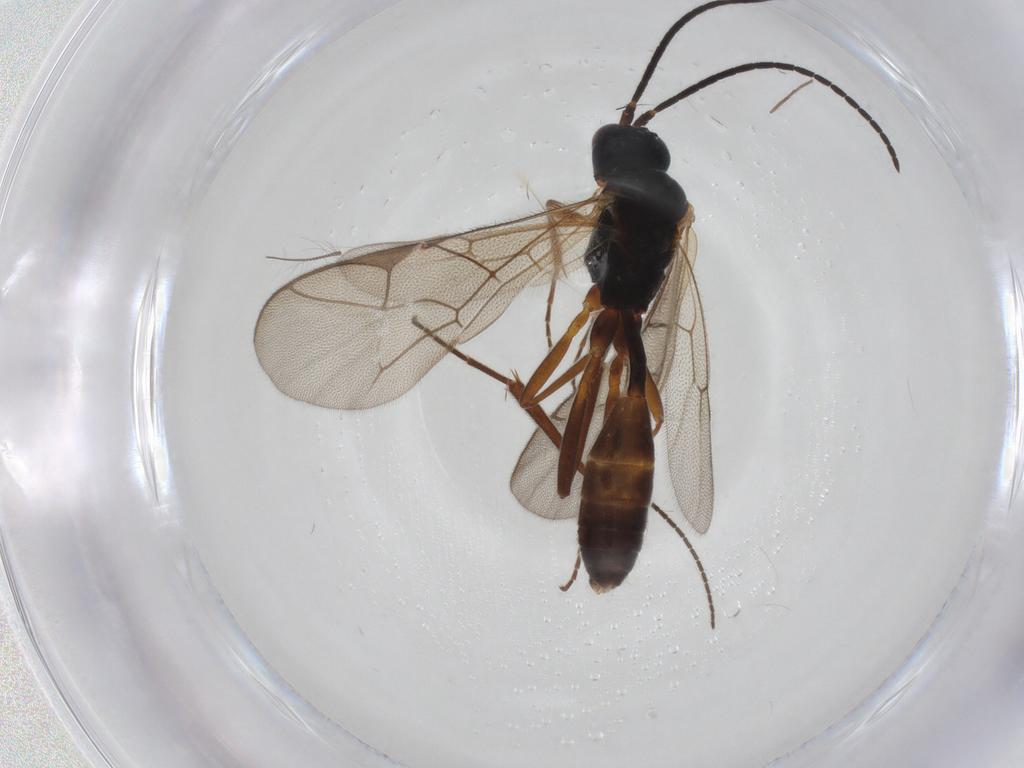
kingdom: Animalia
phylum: Arthropoda
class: Insecta
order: Hymenoptera
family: Ichneumonidae
